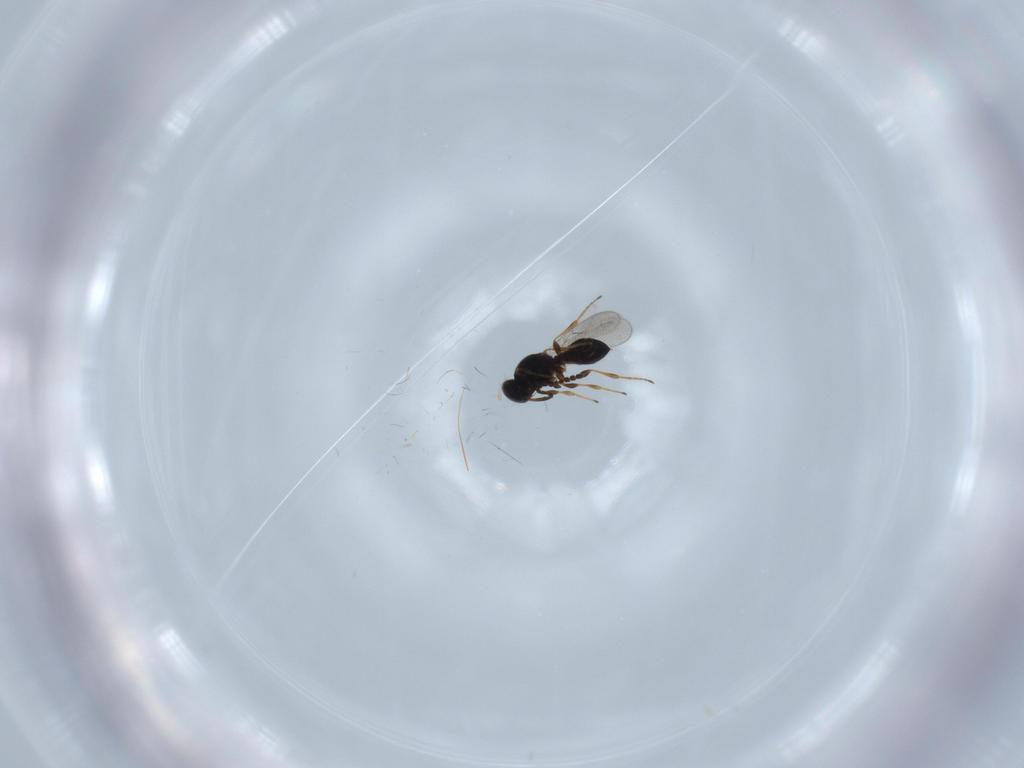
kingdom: Animalia
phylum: Arthropoda
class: Insecta
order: Hymenoptera
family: Platygastridae
